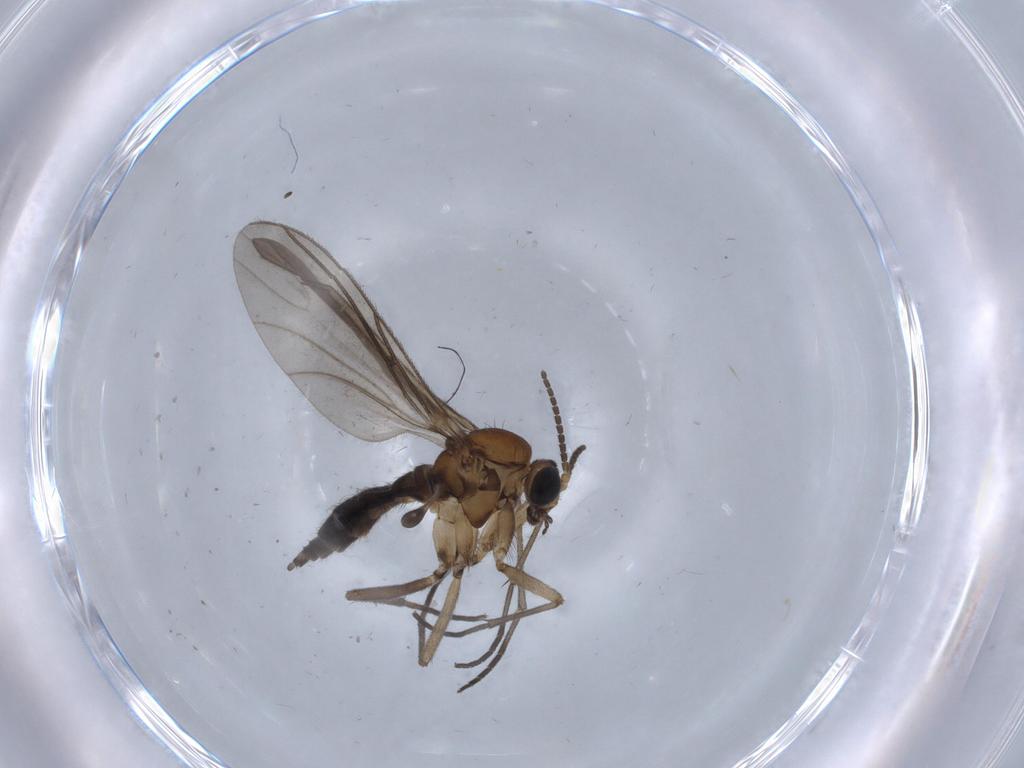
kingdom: Animalia
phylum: Arthropoda
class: Insecta
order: Diptera
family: Sciaridae
